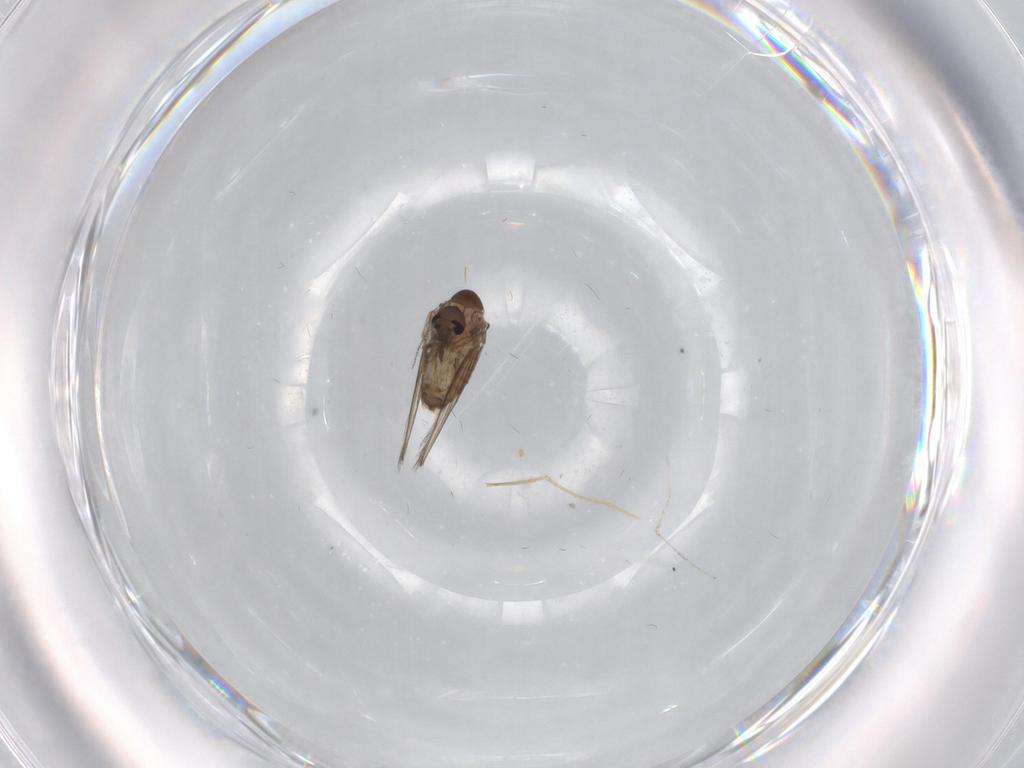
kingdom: Animalia
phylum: Arthropoda
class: Insecta
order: Diptera
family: Psychodidae
